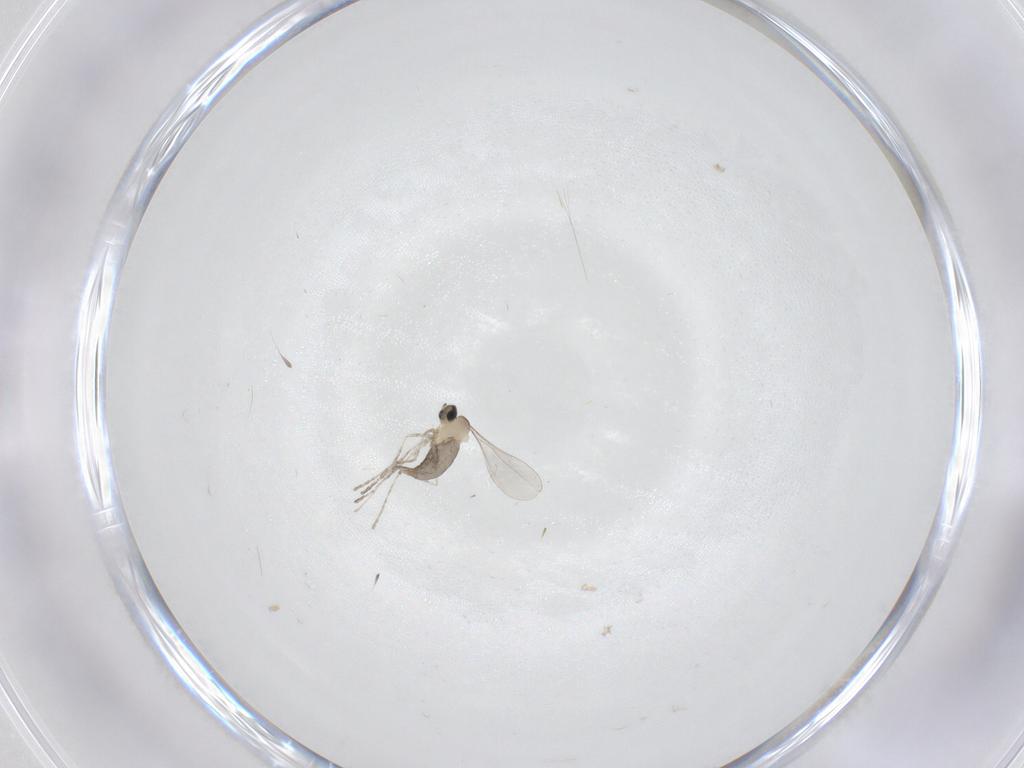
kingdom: Animalia
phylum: Arthropoda
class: Insecta
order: Diptera
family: Cecidomyiidae
